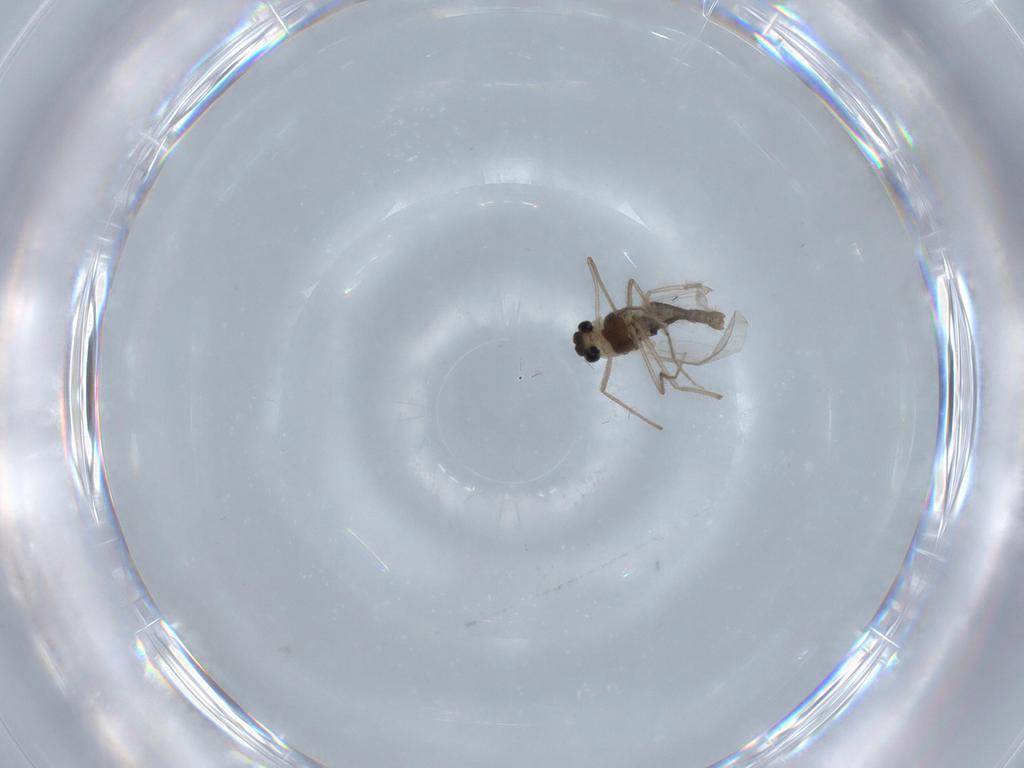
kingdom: Animalia
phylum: Arthropoda
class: Insecta
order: Diptera
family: Chironomidae
